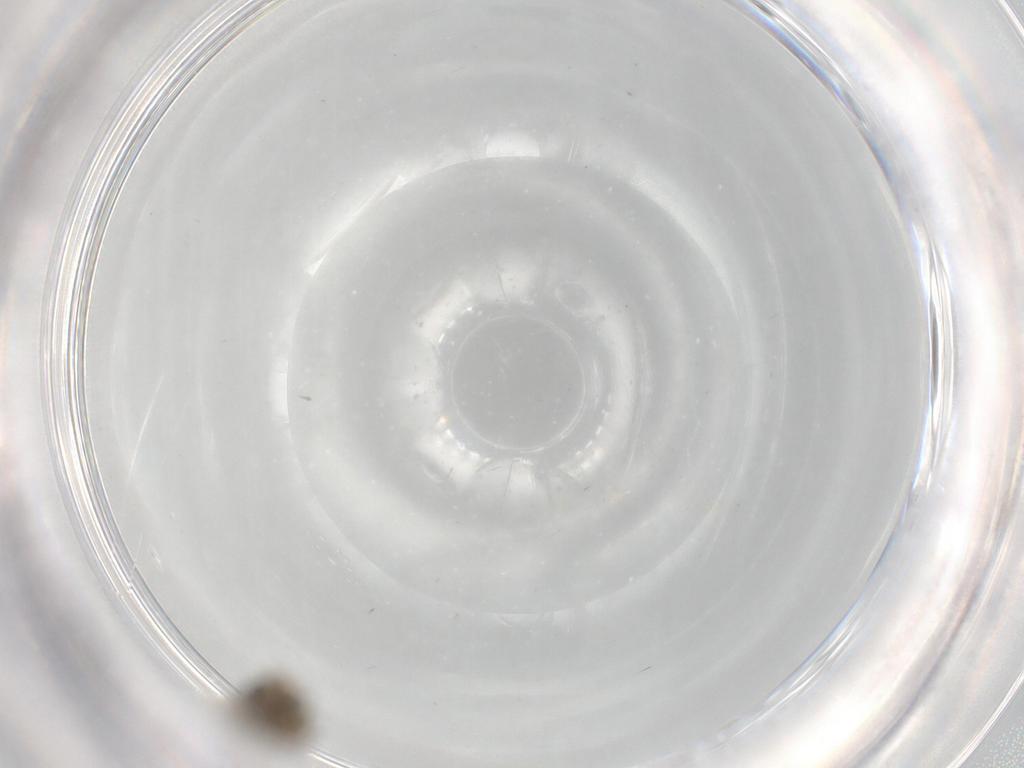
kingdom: Animalia
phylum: Arthropoda
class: Insecta
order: Diptera
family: Psychodidae
